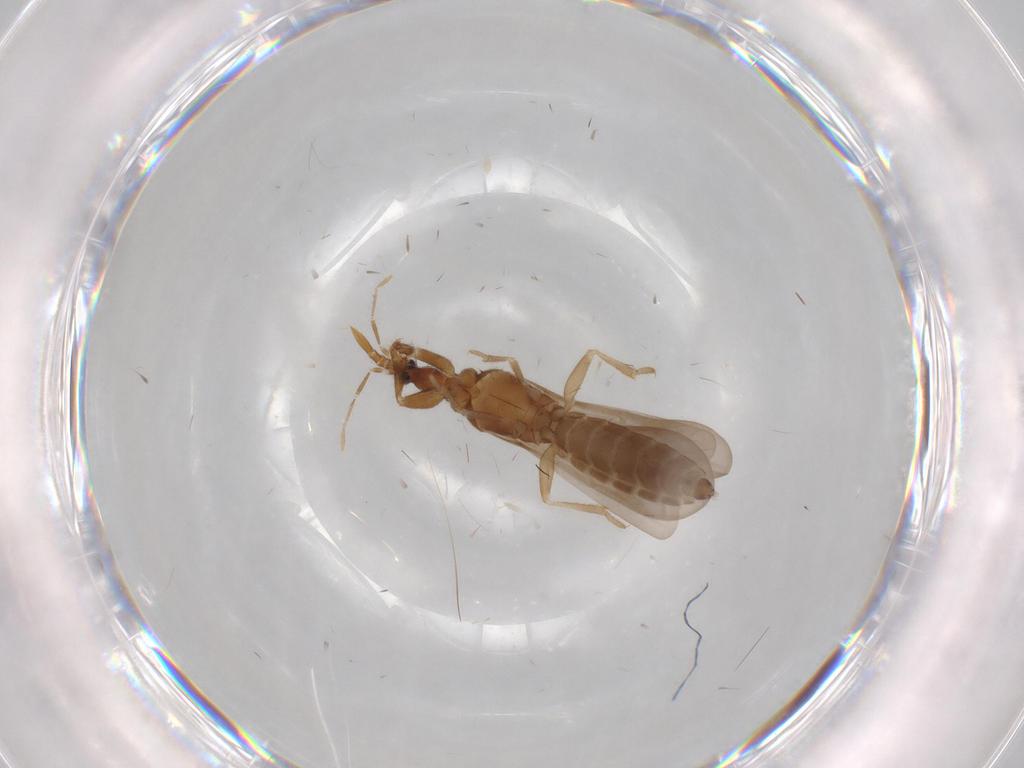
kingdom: Animalia
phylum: Arthropoda
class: Insecta
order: Hemiptera
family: Enicocephalidae
